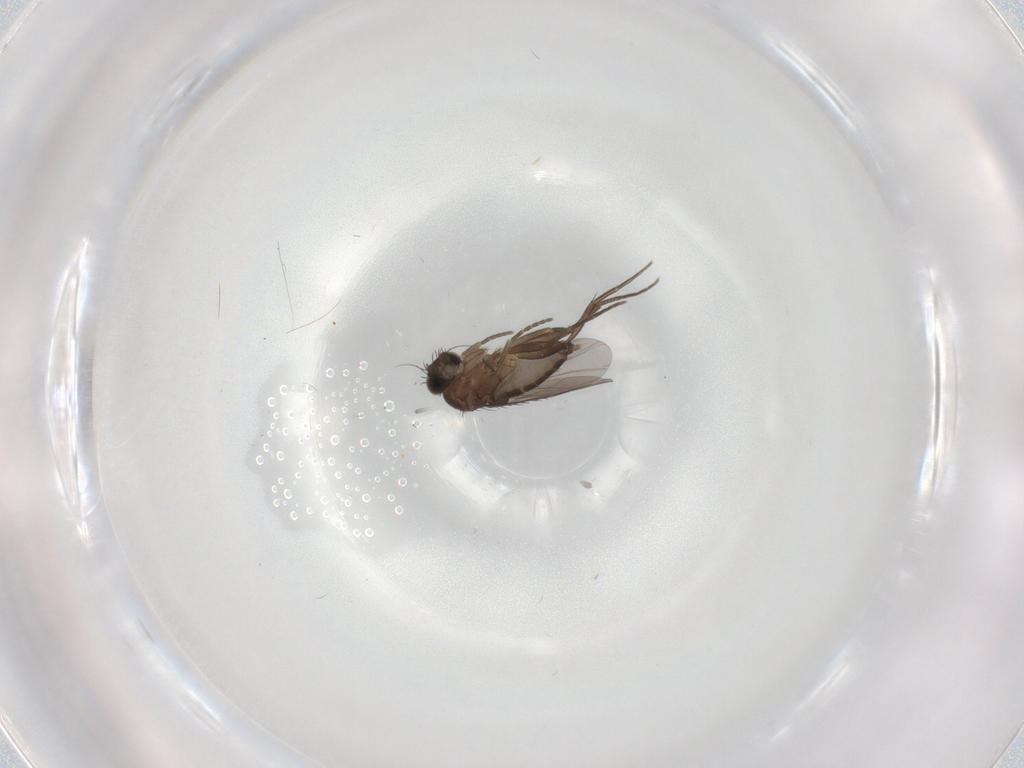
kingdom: Animalia
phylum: Arthropoda
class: Insecta
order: Diptera
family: Phoridae
